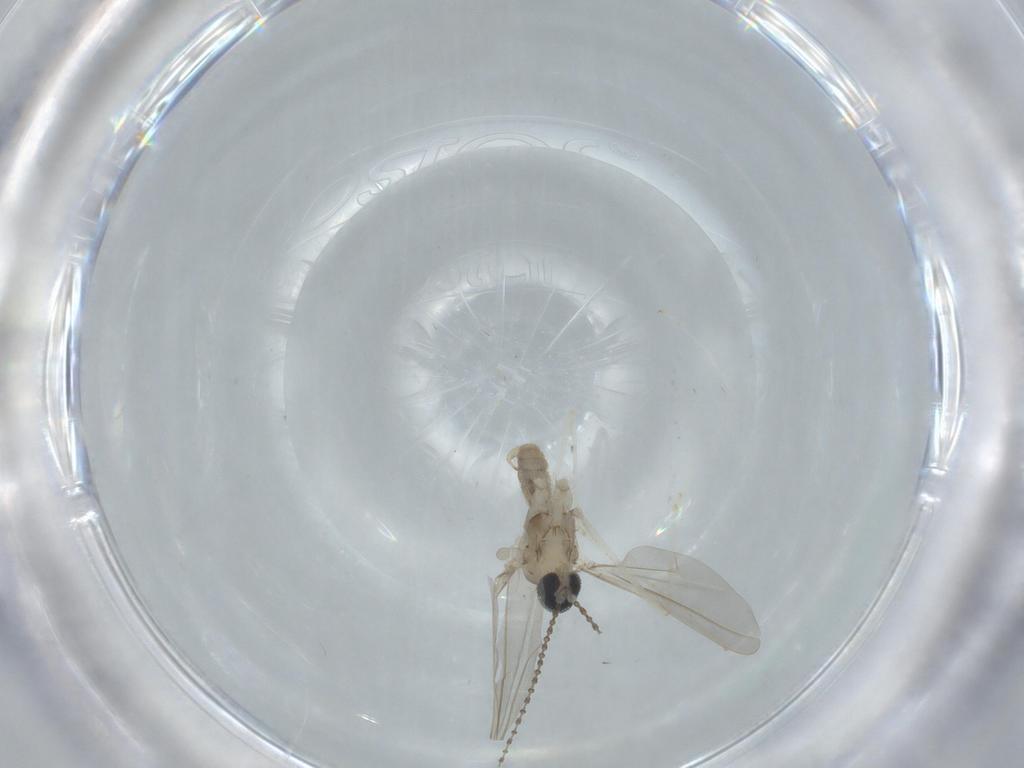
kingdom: Animalia
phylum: Arthropoda
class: Insecta
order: Diptera
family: Cecidomyiidae
